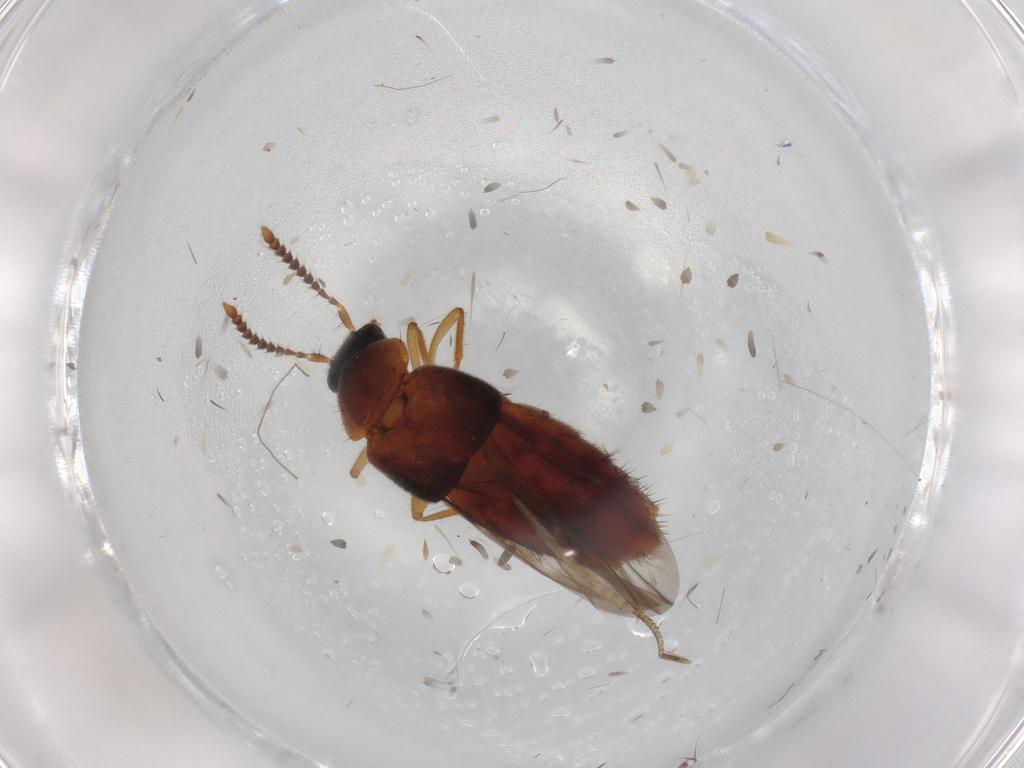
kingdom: Animalia
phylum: Arthropoda
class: Insecta
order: Coleoptera
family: Staphylinidae
